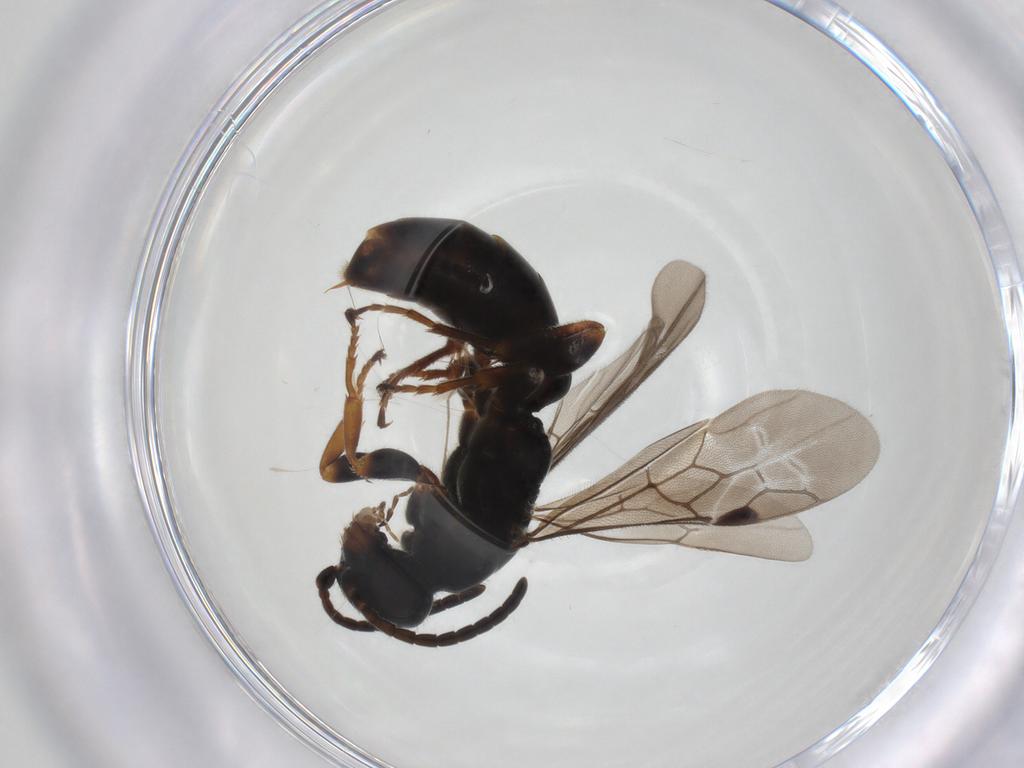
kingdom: Animalia
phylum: Arthropoda
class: Insecta
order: Hymenoptera
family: Sierolomorphidae
